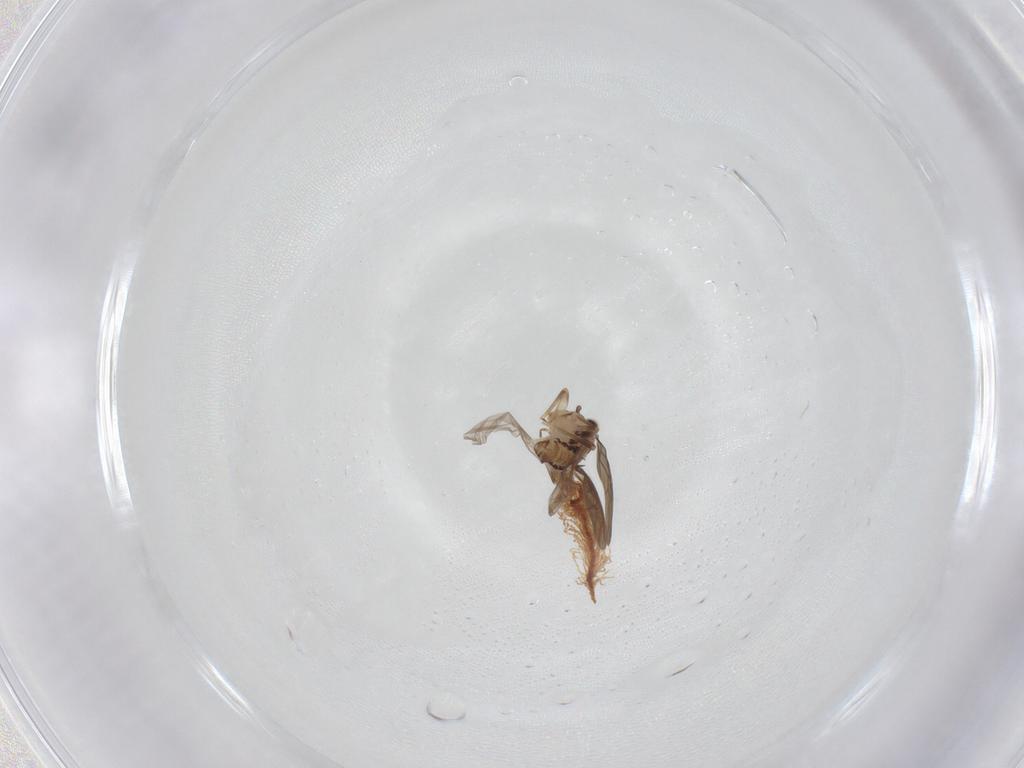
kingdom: Animalia
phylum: Arthropoda
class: Insecta
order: Psocodea
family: Lepidopsocidae
